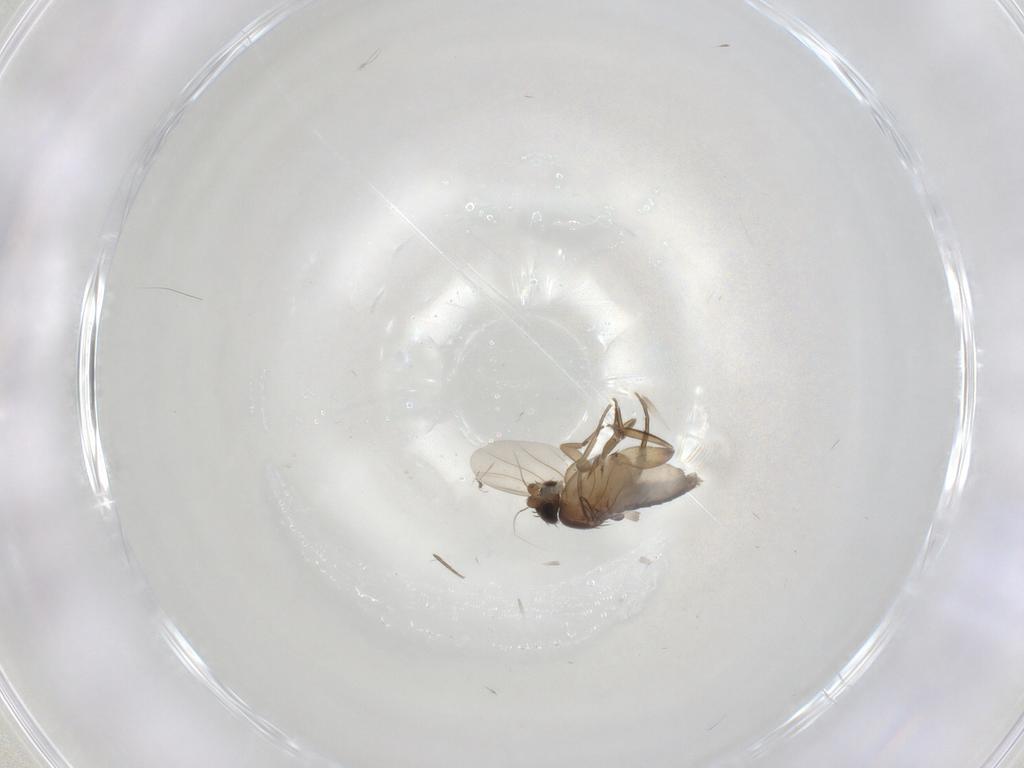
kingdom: Animalia
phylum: Arthropoda
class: Insecta
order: Diptera
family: Phoridae
